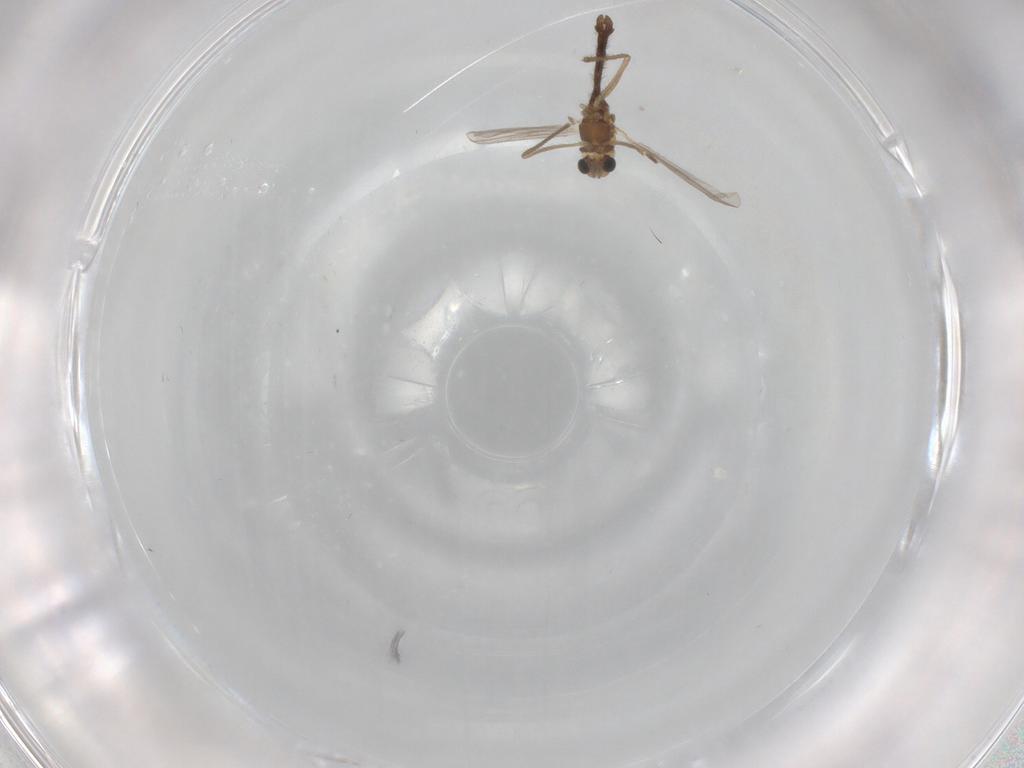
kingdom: Animalia
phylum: Arthropoda
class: Insecta
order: Diptera
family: Chironomidae
